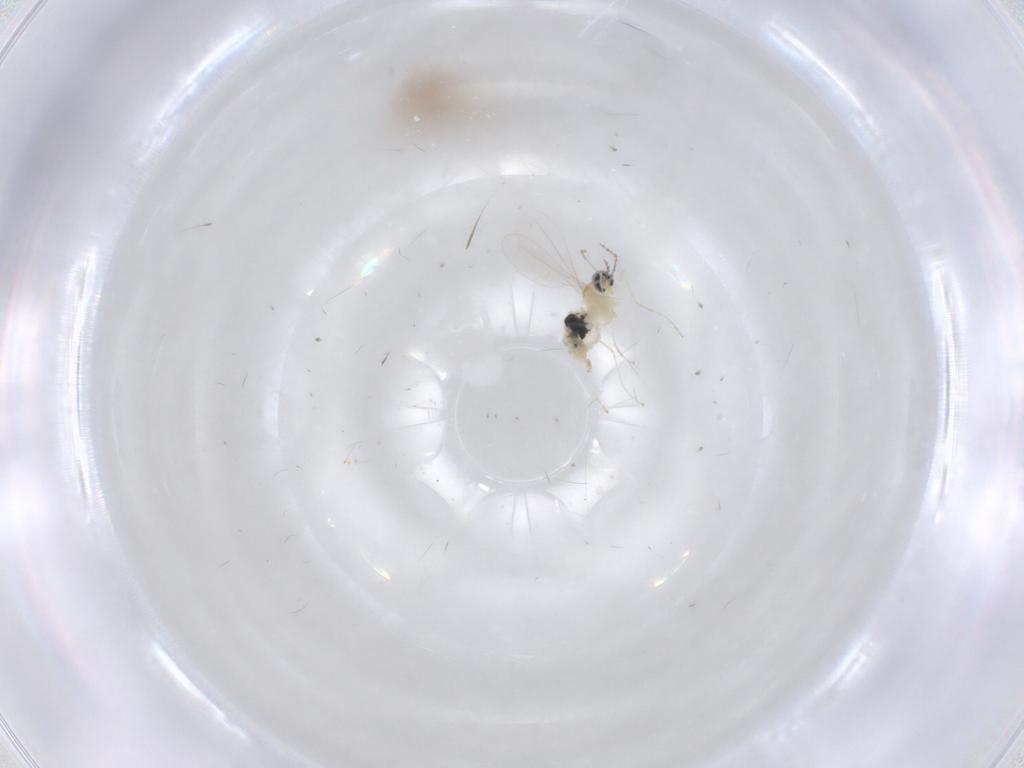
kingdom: Animalia
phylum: Arthropoda
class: Insecta
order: Diptera
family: Cecidomyiidae
